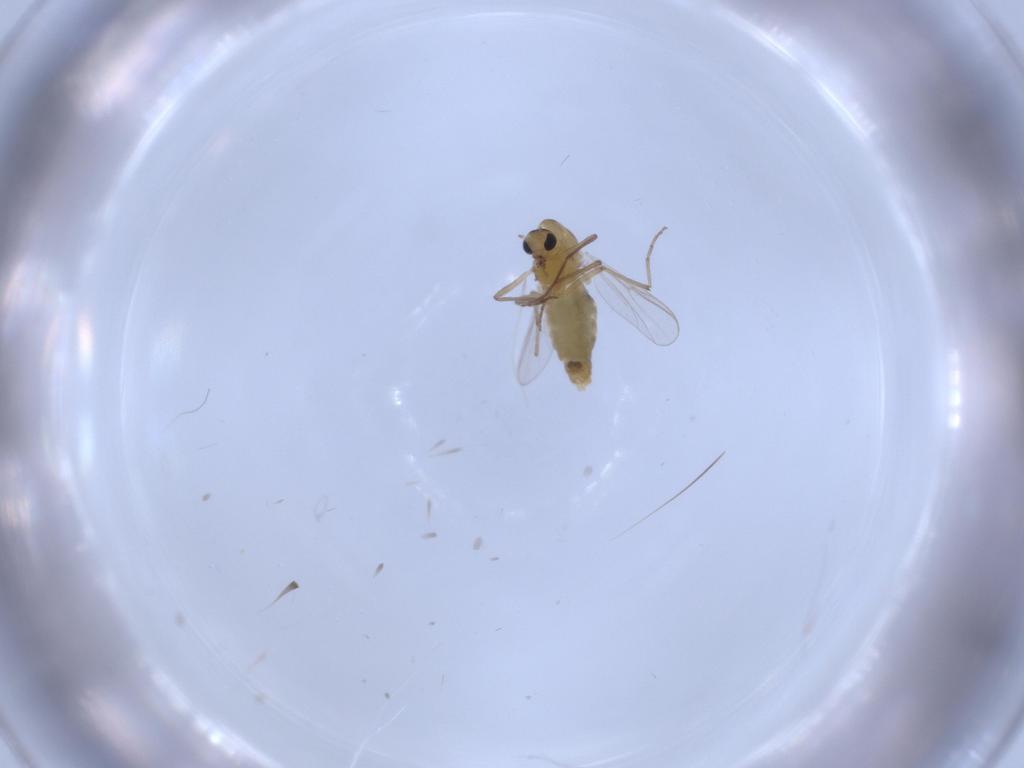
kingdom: Animalia
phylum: Arthropoda
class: Insecta
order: Diptera
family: Chironomidae
